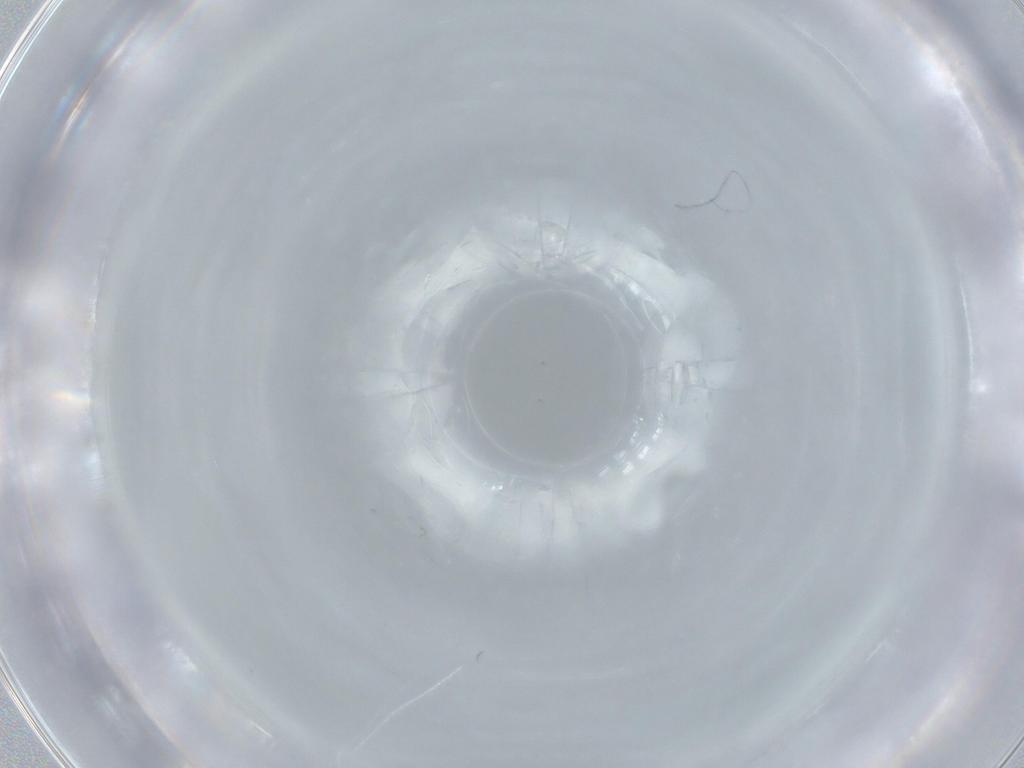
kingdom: Animalia
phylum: Arthropoda
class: Insecta
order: Diptera
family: Cecidomyiidae
